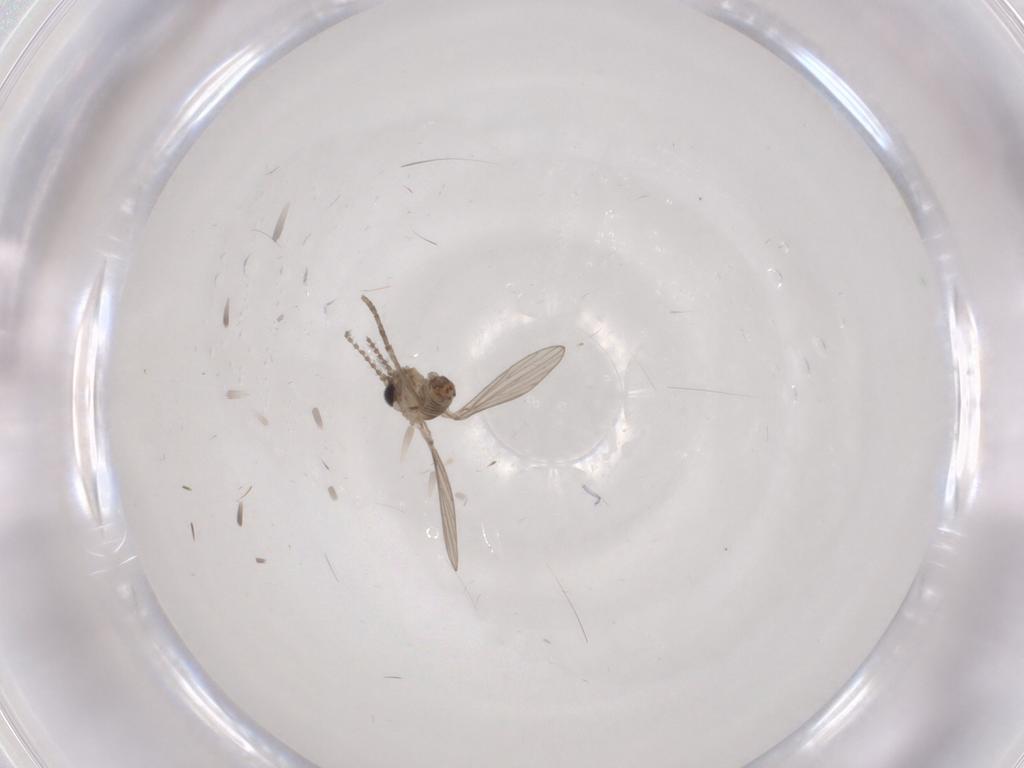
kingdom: Animalia
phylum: Arthropoda
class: Insecta
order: Diptera
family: Psychodidae
